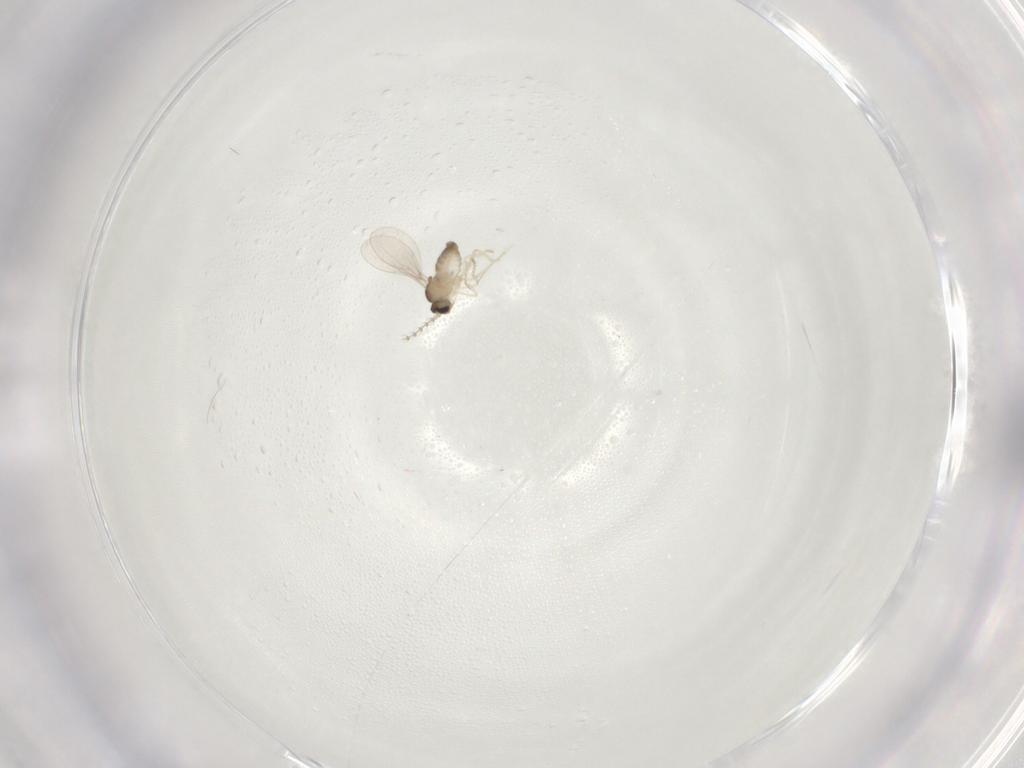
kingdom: Animalia
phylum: Arthropoda
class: Insecta
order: Diptera
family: Cecidomyiidae
